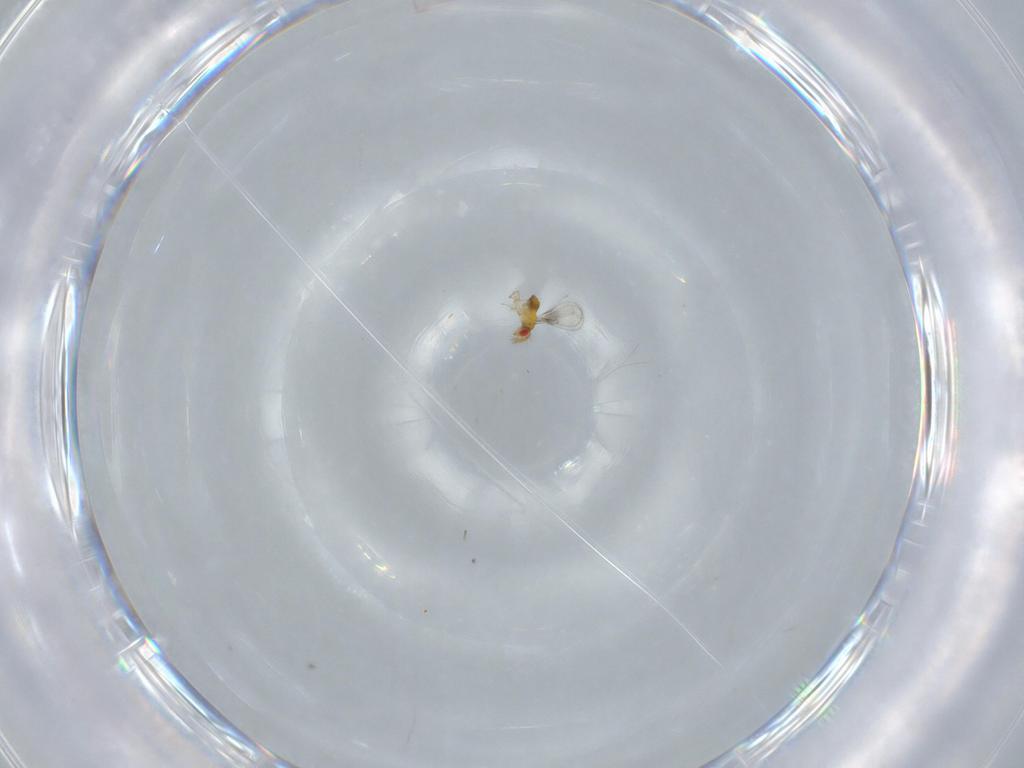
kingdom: Animalia
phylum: Arthropoda
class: Insecta
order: Hymenoptera
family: Trichogrammatidae
